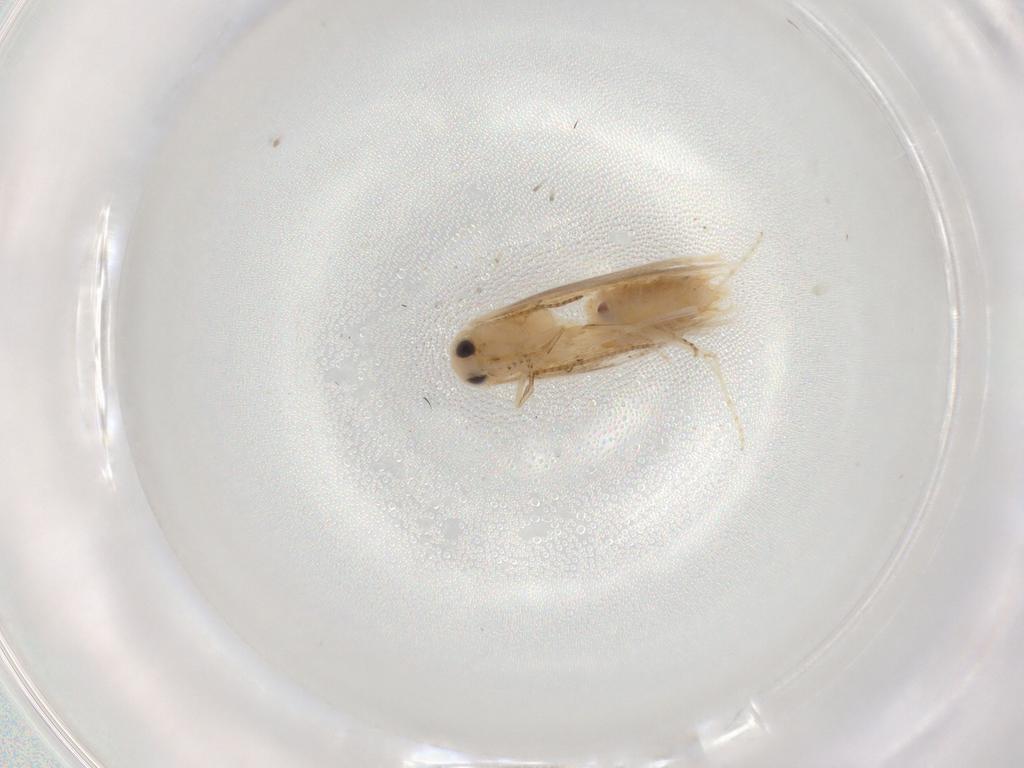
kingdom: Animalia
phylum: Arthropoda
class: Insecta
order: Lepidoptera
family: Bucculatricidae
